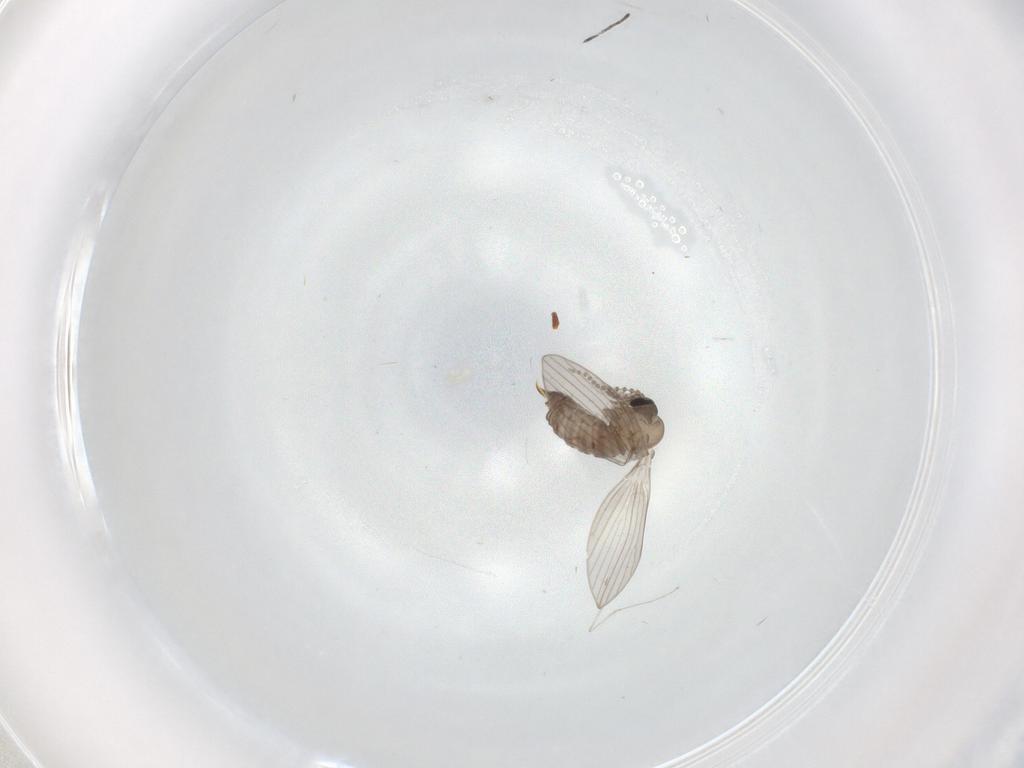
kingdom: Animalia
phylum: Arthropoda
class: Insecta
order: Diptera
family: Psychodidae
